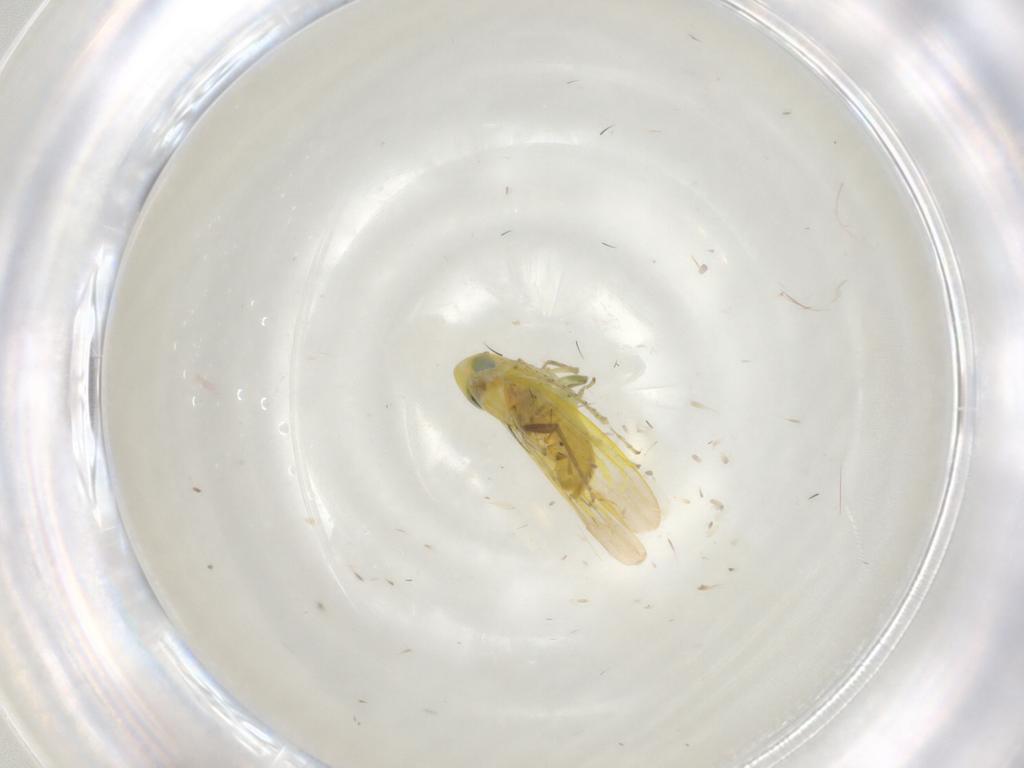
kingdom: Animalia
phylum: Arthropoda
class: Insecta
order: Hemiptera
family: Cicadellidae
